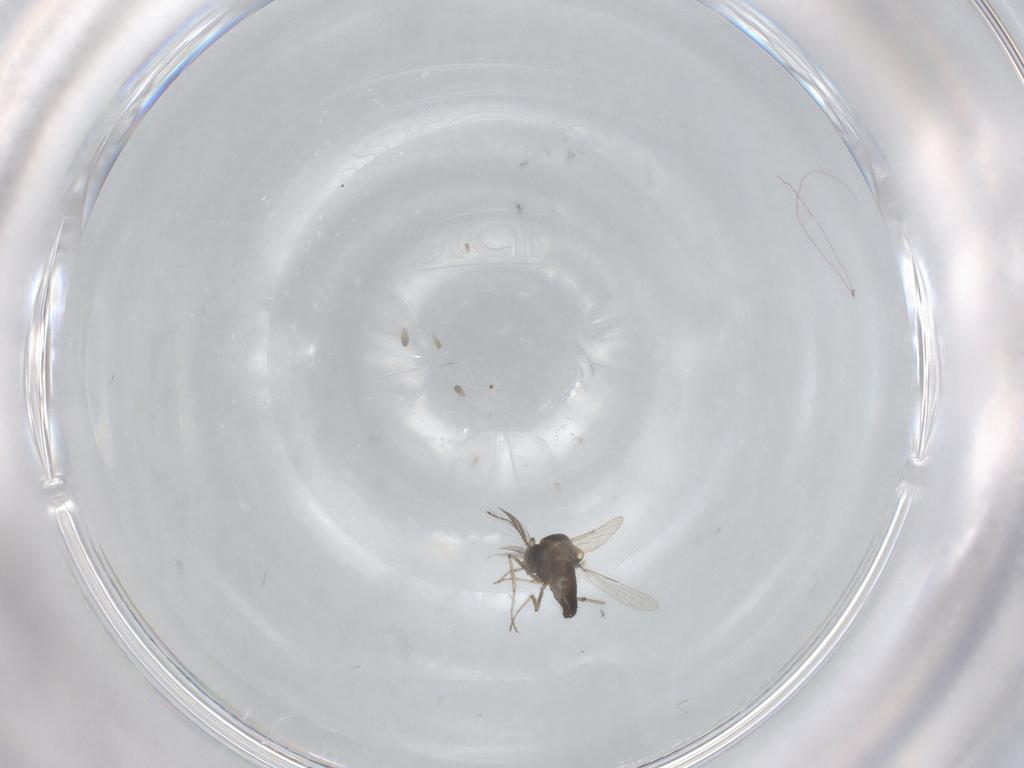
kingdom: Animalia
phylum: Arthropoda
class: Insecta
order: Diptera
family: Ceratopogonidae
